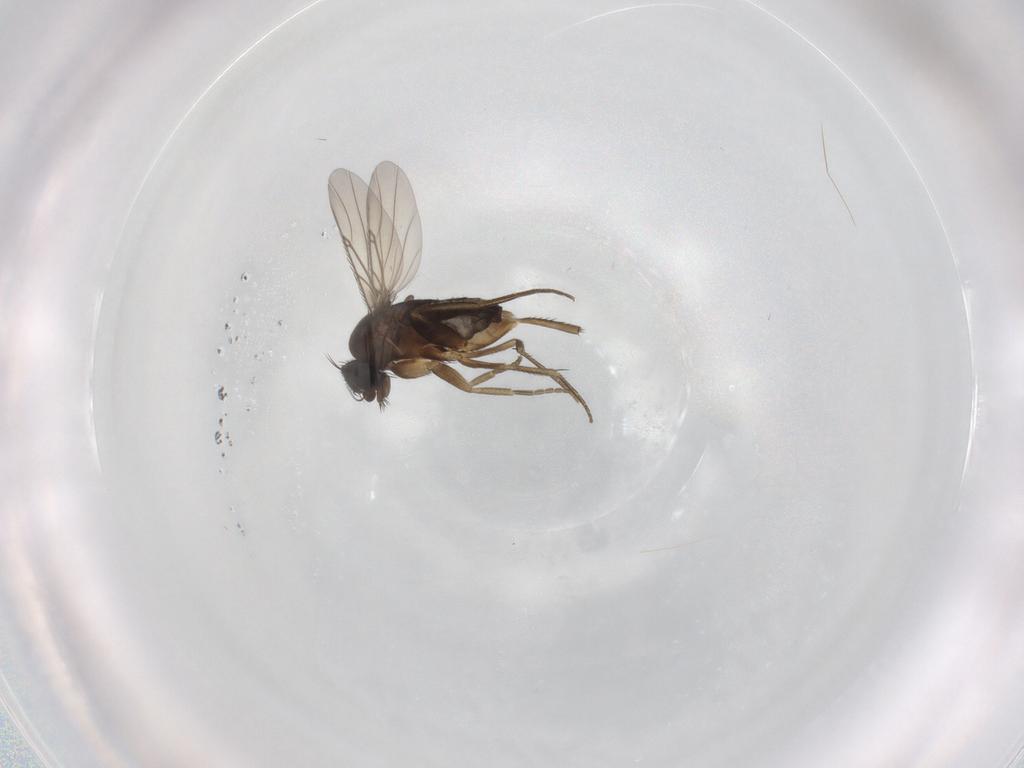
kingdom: Animalia
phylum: Arthropoda
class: Insecta
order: Diptera
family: Phoridae
